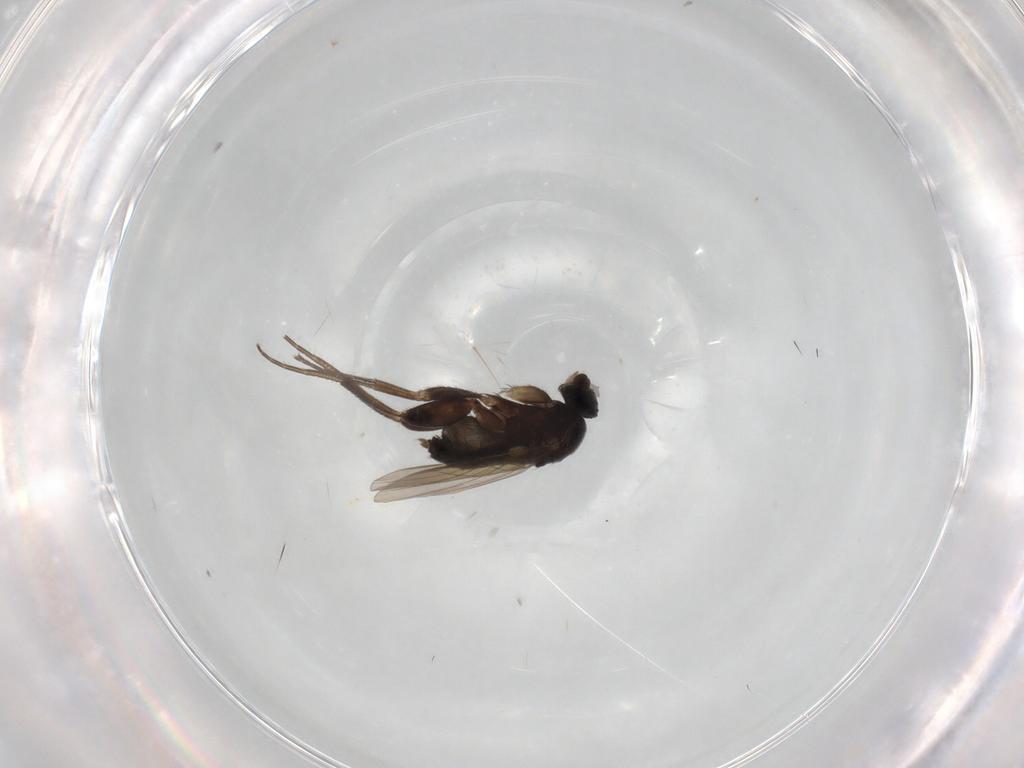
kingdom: Animalia
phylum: Arthropoda
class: Insecta
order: Diptera
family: Phoridae
